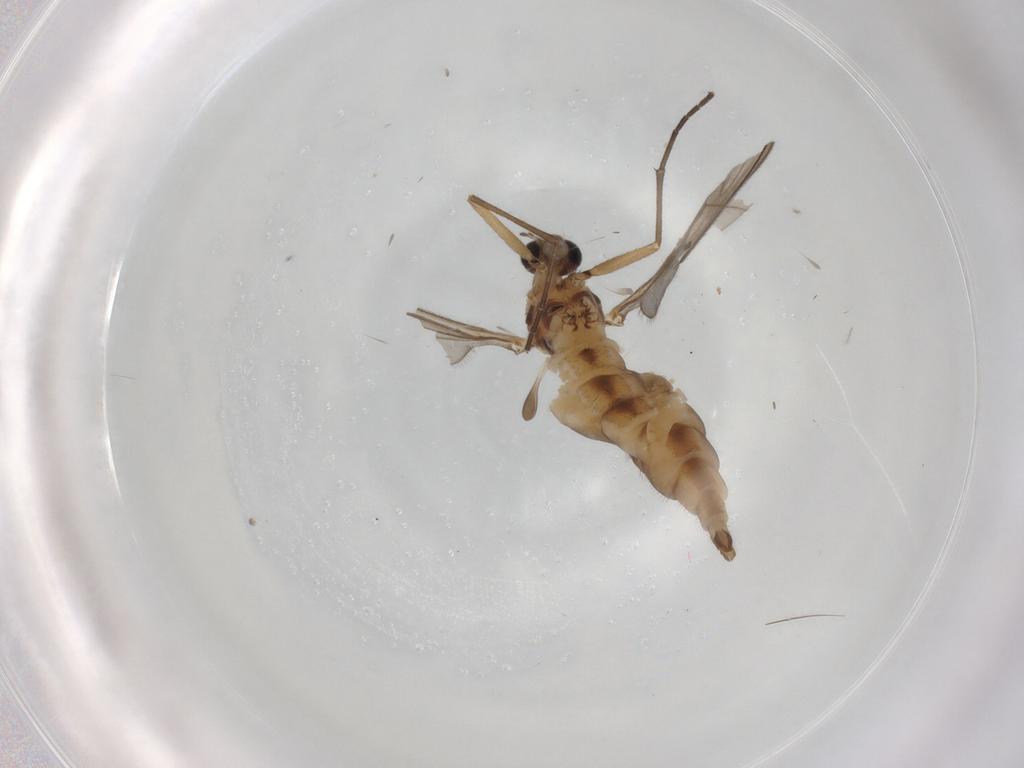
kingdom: Animalia
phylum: Arthropoda
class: Insecta
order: Diptera
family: Sciaridae
